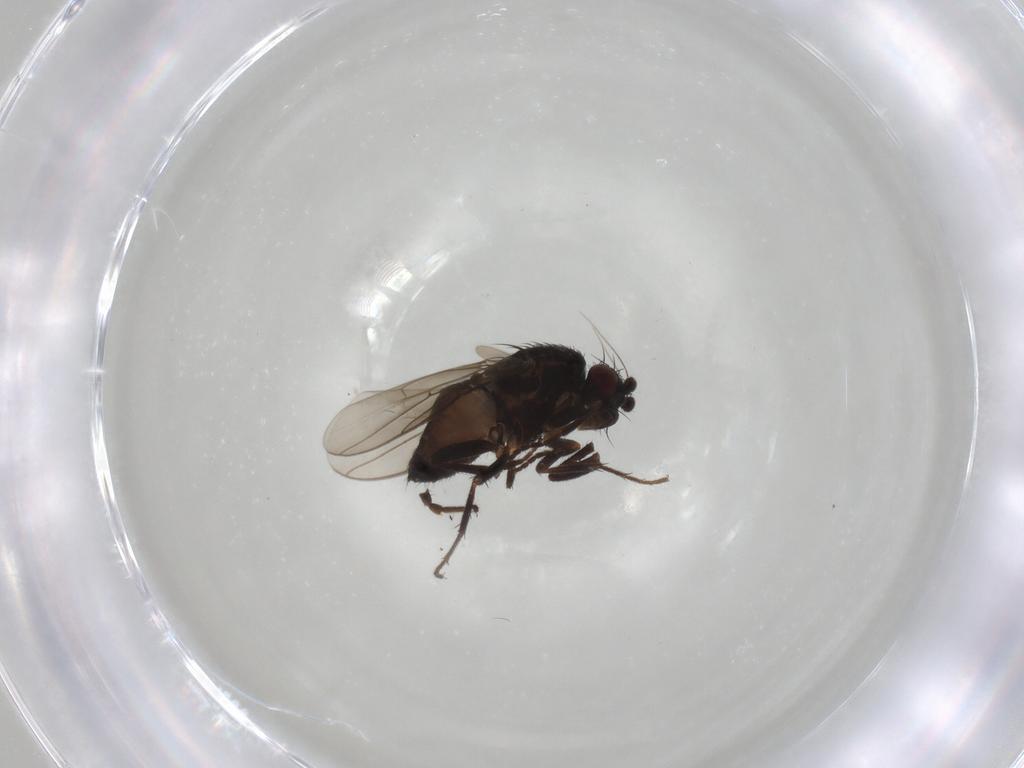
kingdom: Animalia
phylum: Arthropoda
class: Insecta
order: Diptera
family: Sphaeroceridae
